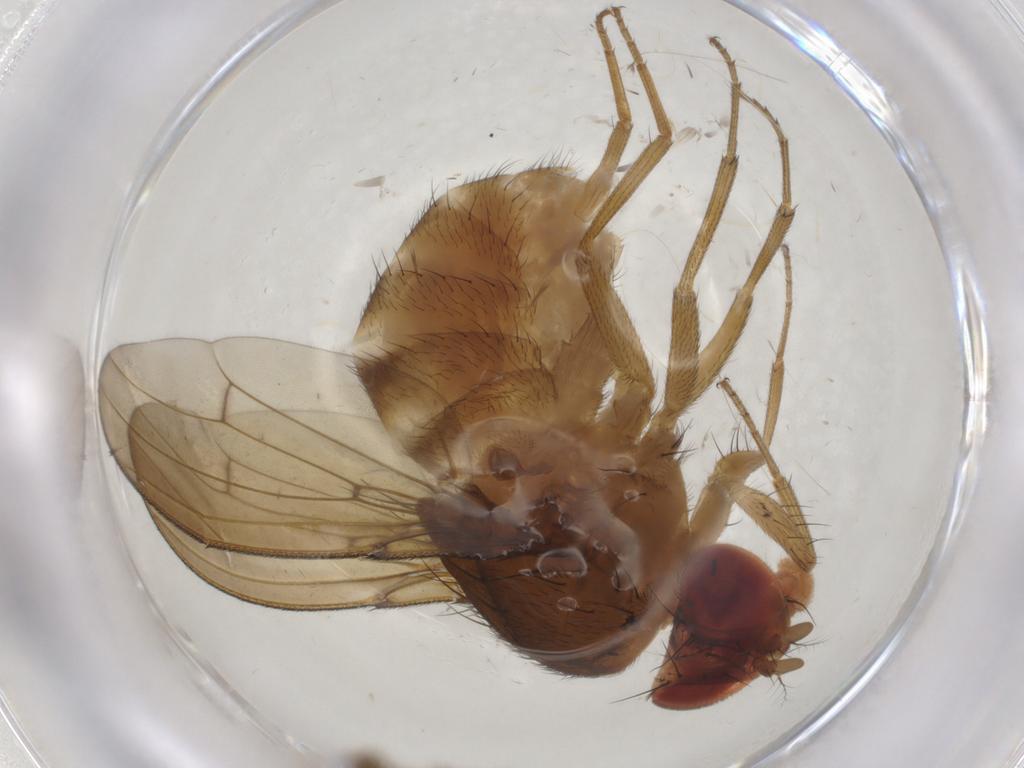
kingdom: Animalia
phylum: Arthropoda
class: Insecta
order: Diptera
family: Drosophilidae
